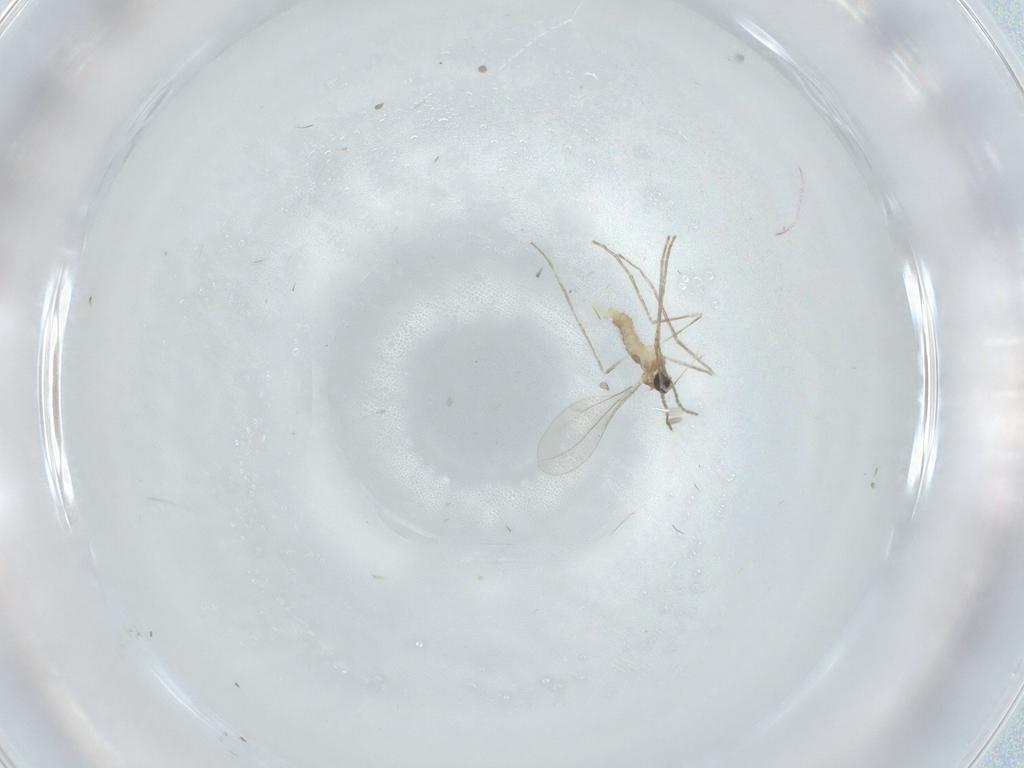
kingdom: Animalia
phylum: Arthropoda
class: Insecta
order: Diptera
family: Cecidomyiidae
